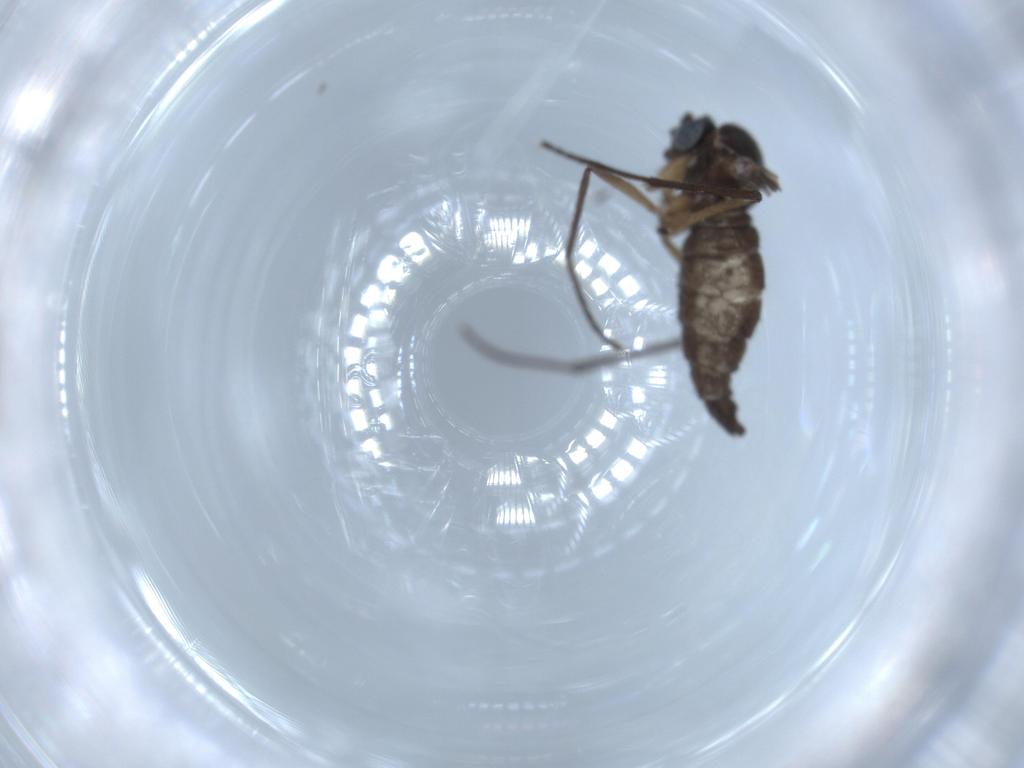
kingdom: Animalia
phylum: Arthropoda
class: Insecta
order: Diptera
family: Sciaridae
